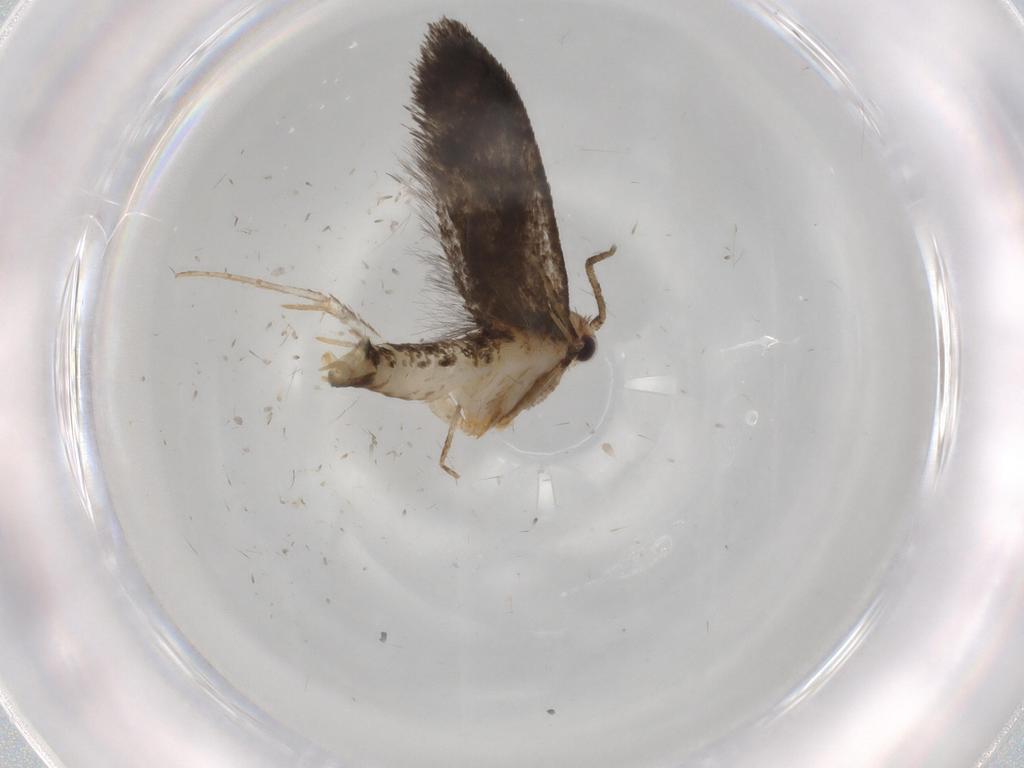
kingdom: Animalia
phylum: Arthropoda
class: Insecta
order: Lepidoptera
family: Tineidae
